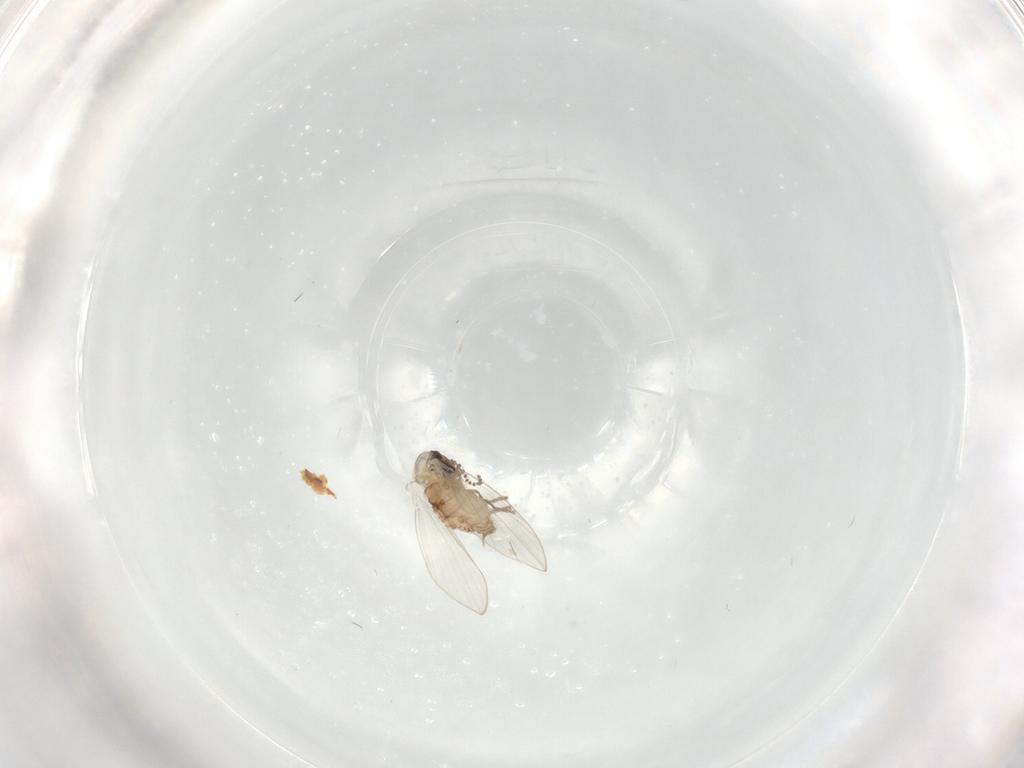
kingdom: Animalia
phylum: Arthropoda
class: Insecta
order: Diptera
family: Psychodidae
